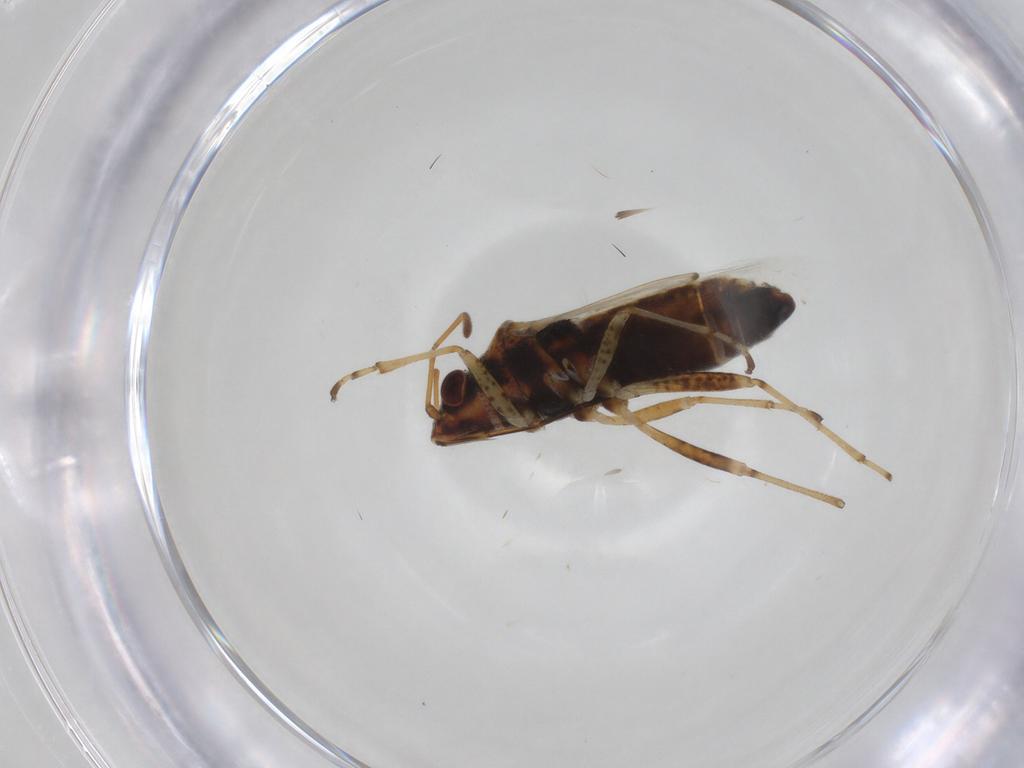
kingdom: Animalia
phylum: Arthropoda
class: Insecta
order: Hemiptera
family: Lygaeidae
